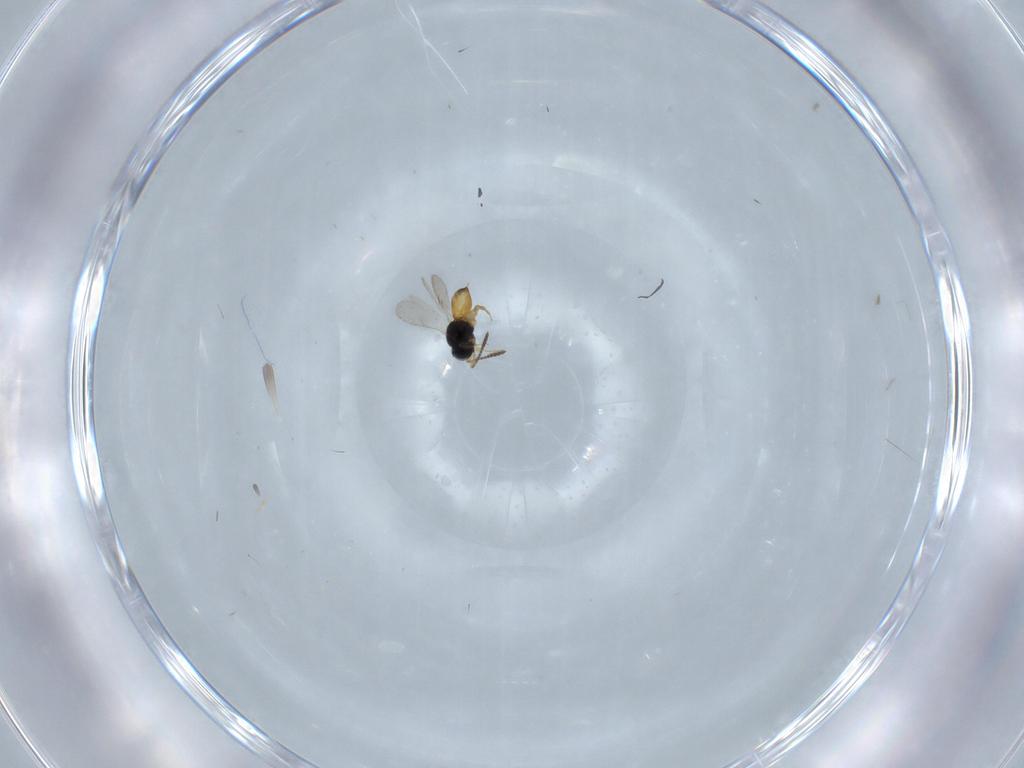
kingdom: Animalia
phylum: Arthropoda
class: Insecta
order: Hymenoptera
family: Scelionidae
